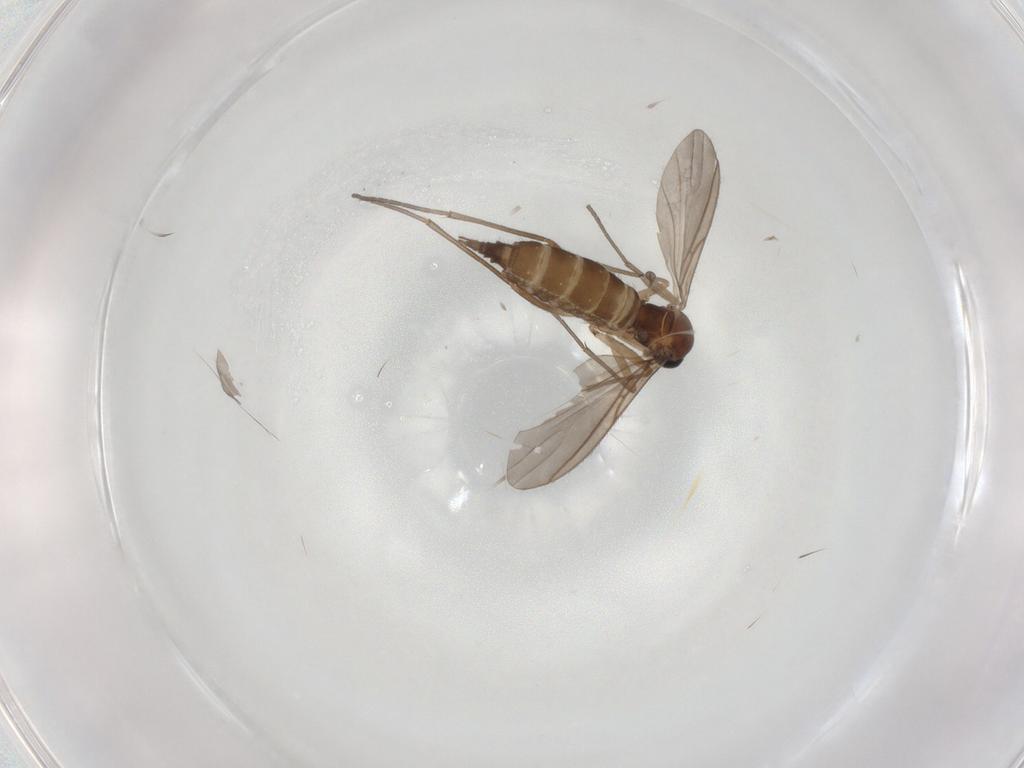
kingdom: Animalia
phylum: Arthropoda
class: Insecta
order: Diptera
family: Sciaridae
